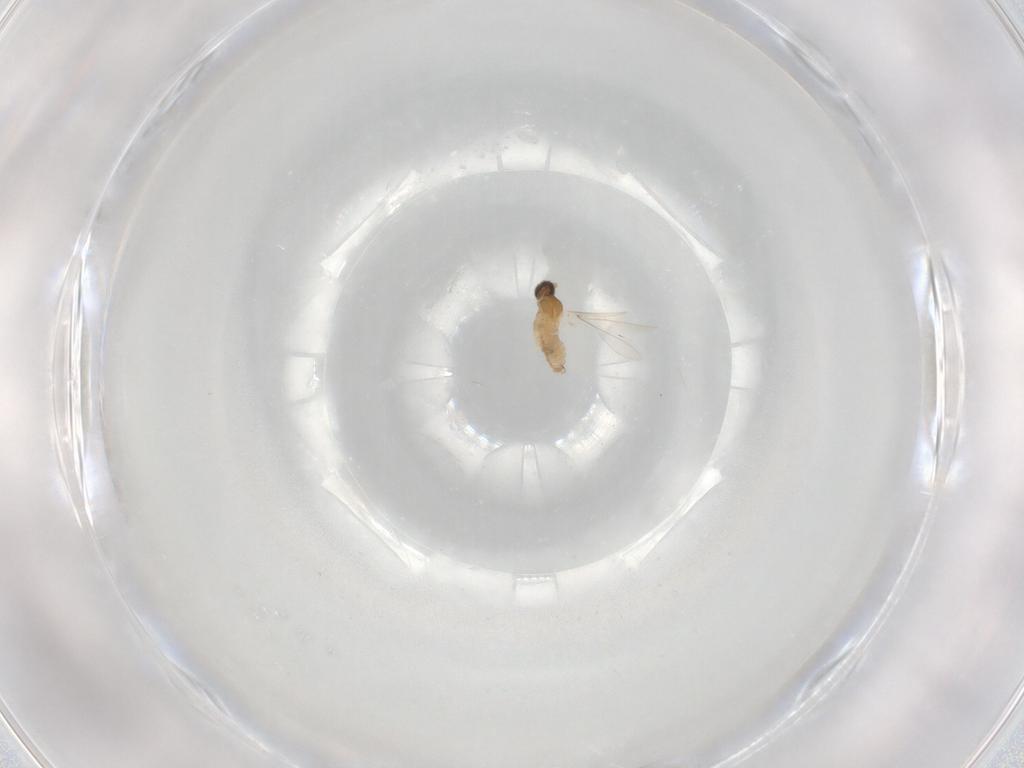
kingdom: Animalia
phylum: Arthropoda
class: Insecta
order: Diptera
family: Cecidomyiidae
